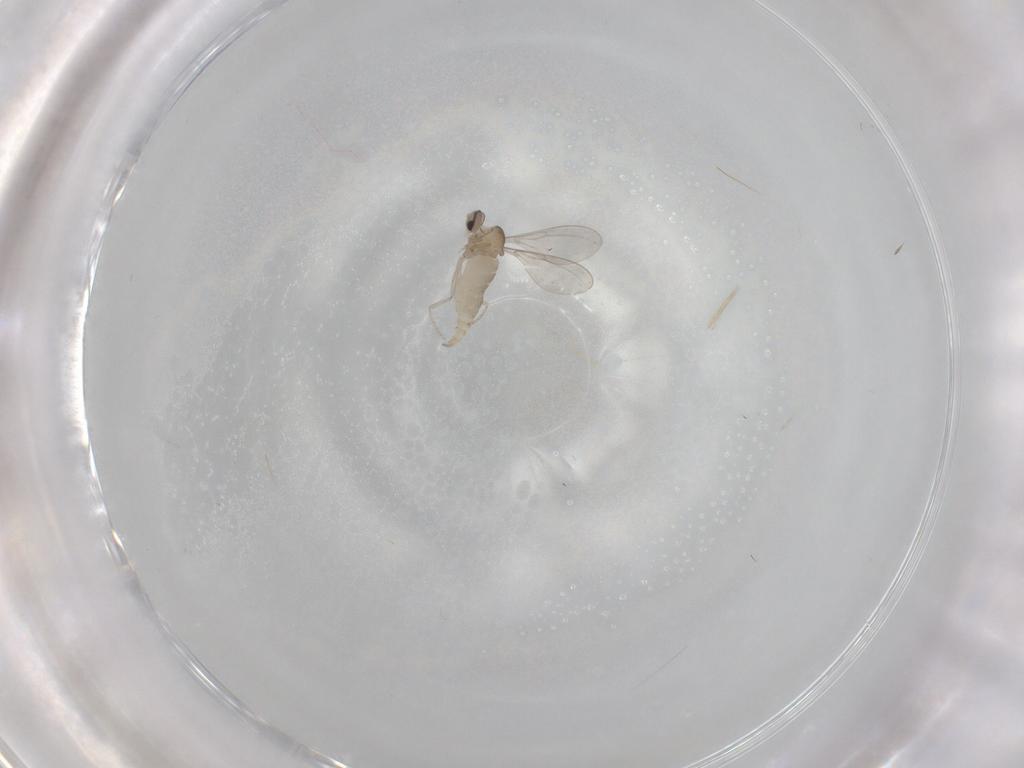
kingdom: Animalia
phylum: Arthropoda
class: Insecta
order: Diptera
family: Cecidomyiidae
